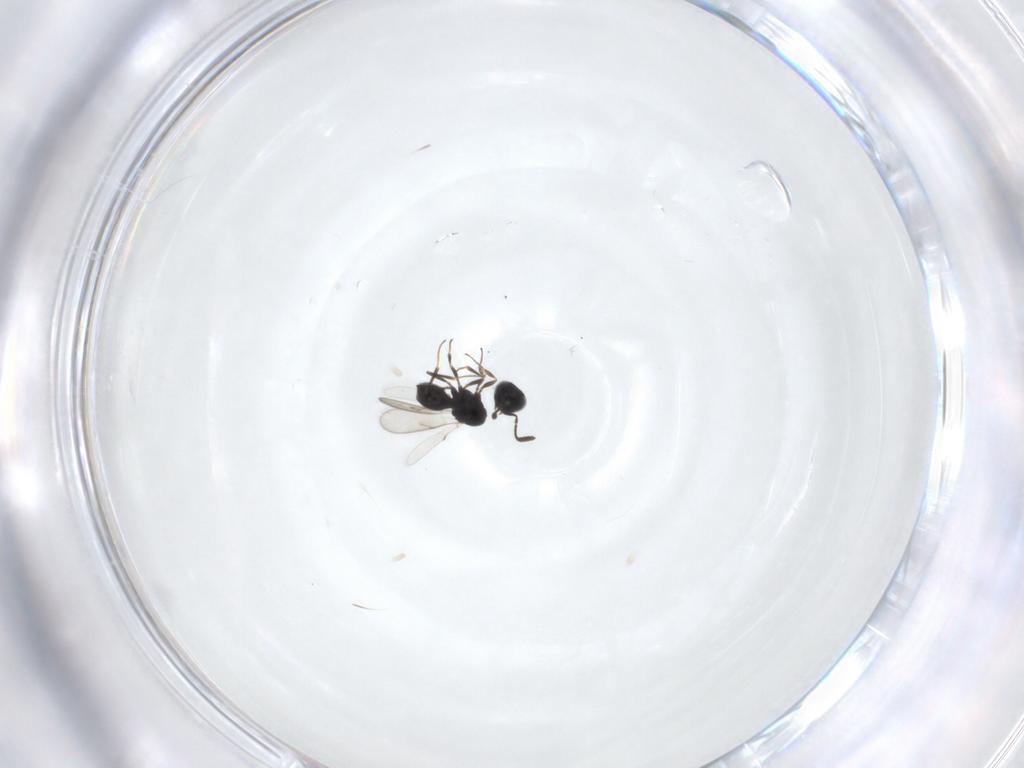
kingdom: Animalia
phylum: Arthropoda
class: Insecta
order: Hymenoptera
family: Scelionidae
